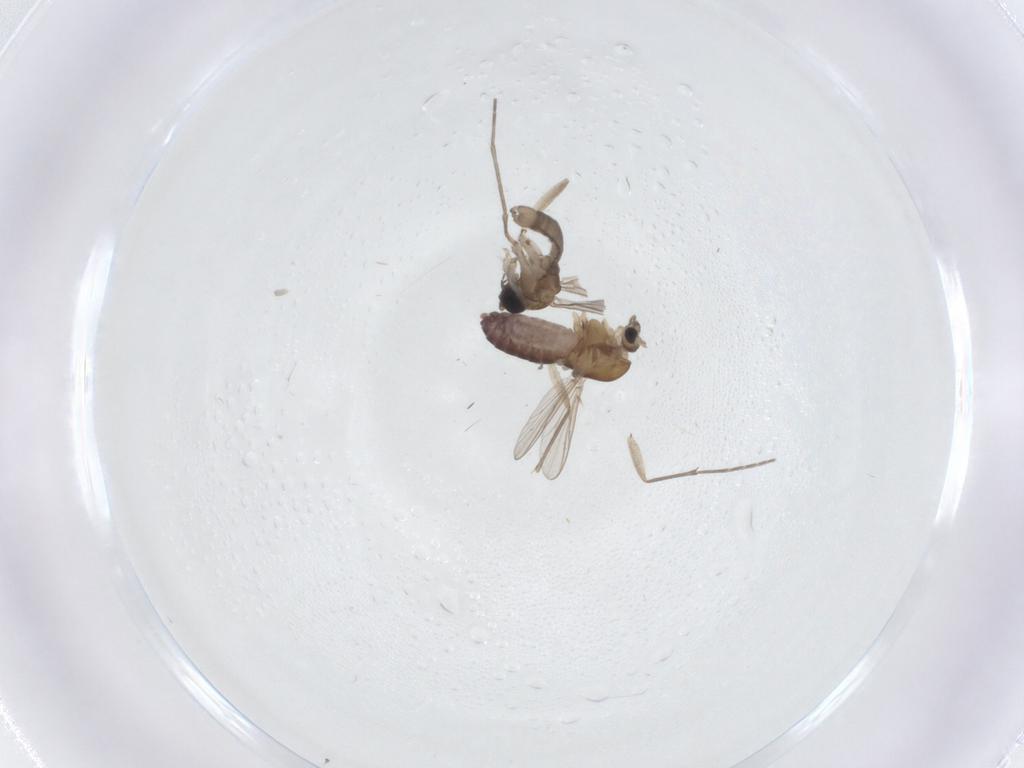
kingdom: Animalia
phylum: Arthropoda
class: Insecta
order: Diptera
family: Sciaridae
